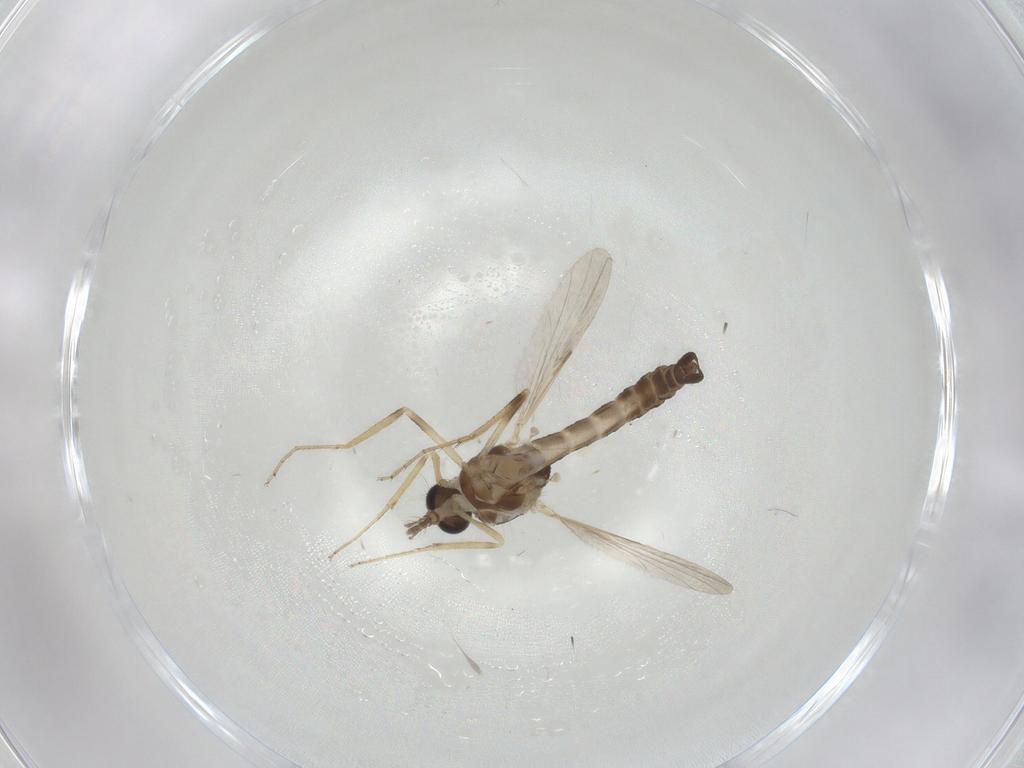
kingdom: Animalia
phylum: Arthropoda
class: Insecta
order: Diptera
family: Ceratopogonidae
